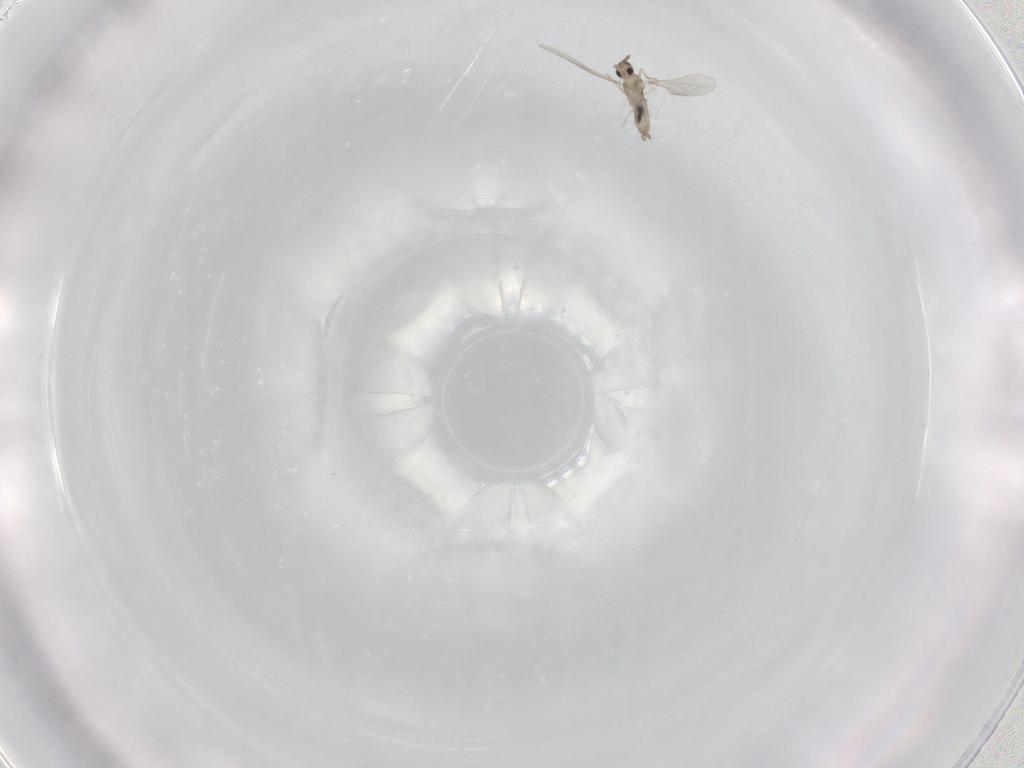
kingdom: Animalia
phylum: Arthropoda
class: Insecta
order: Diptera
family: Cecidomyiidae
